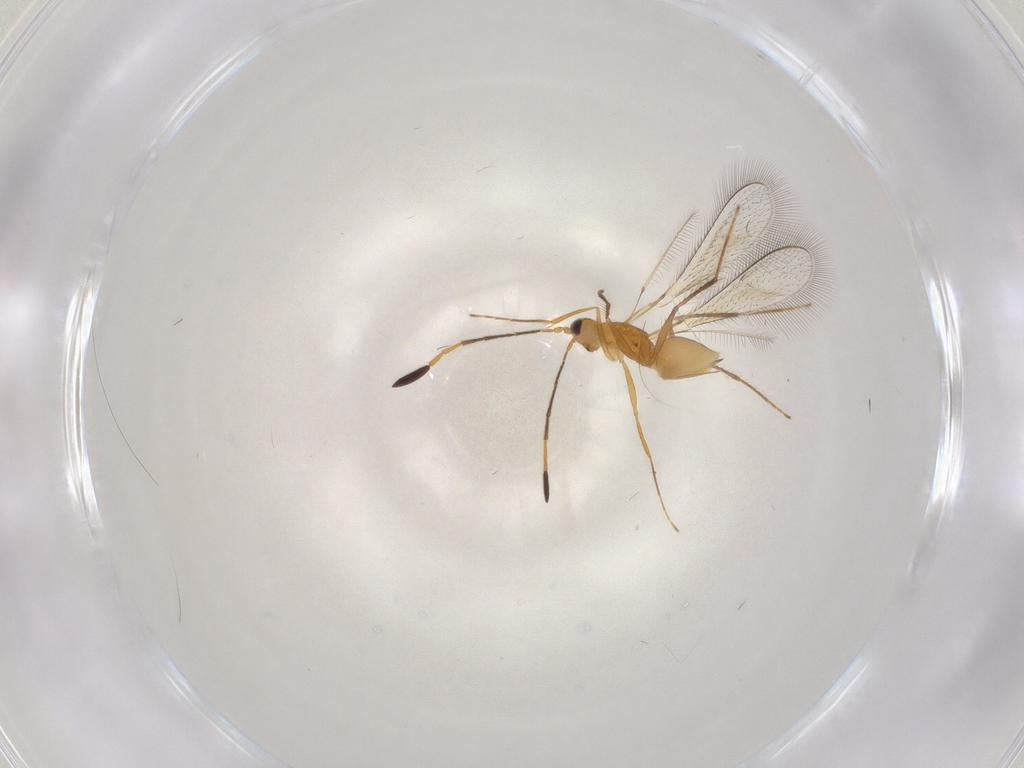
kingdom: Animalia
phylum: Arthropoda
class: Insecta
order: Hymenoptera
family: Mymaridae
